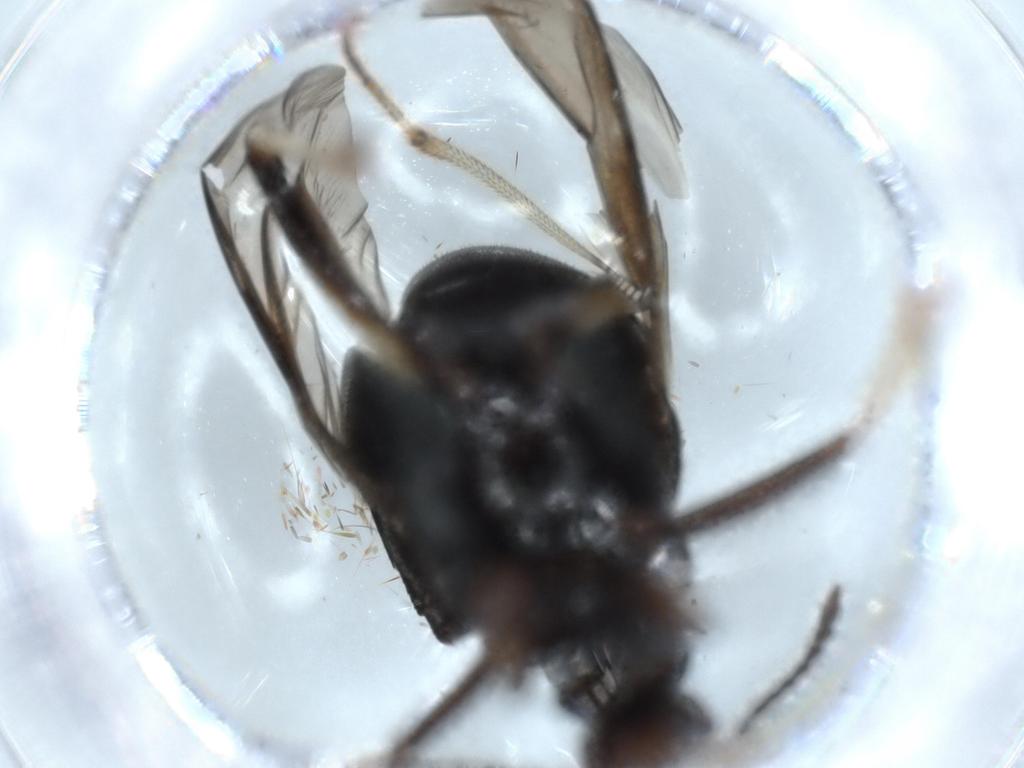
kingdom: Animalia
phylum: Arthropoda
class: Insecta
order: Coleoptera
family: Staphylinidae
